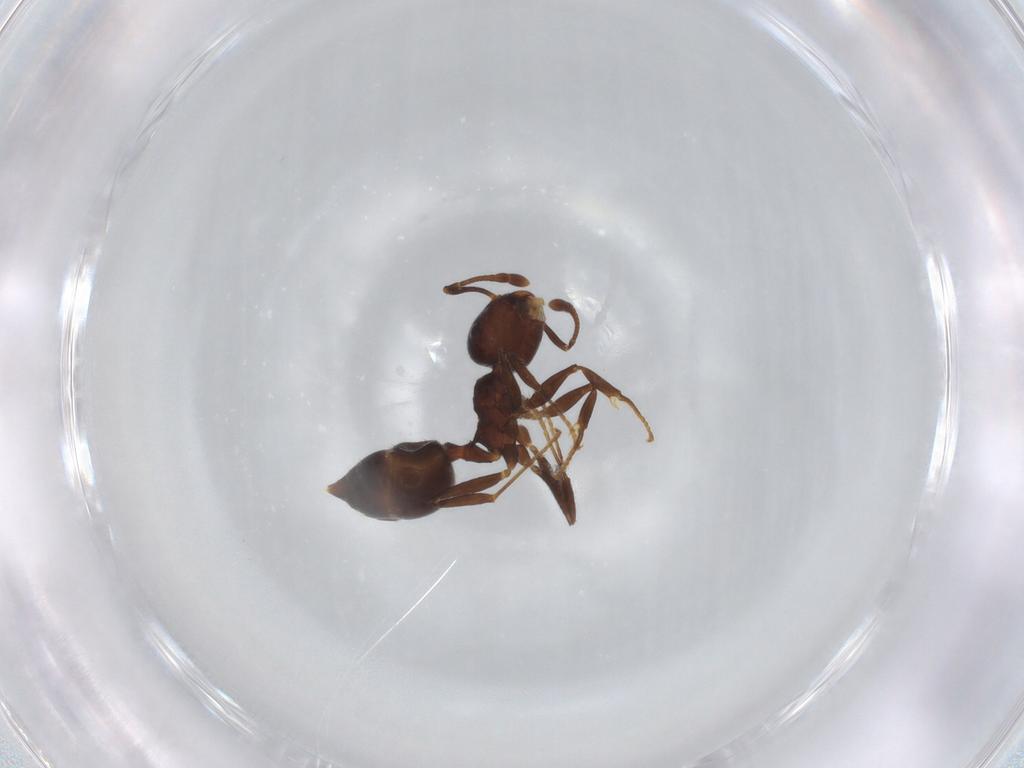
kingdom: Animalia
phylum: Arthropoda
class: Insecta
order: Hymenoptera
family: Formicidae
